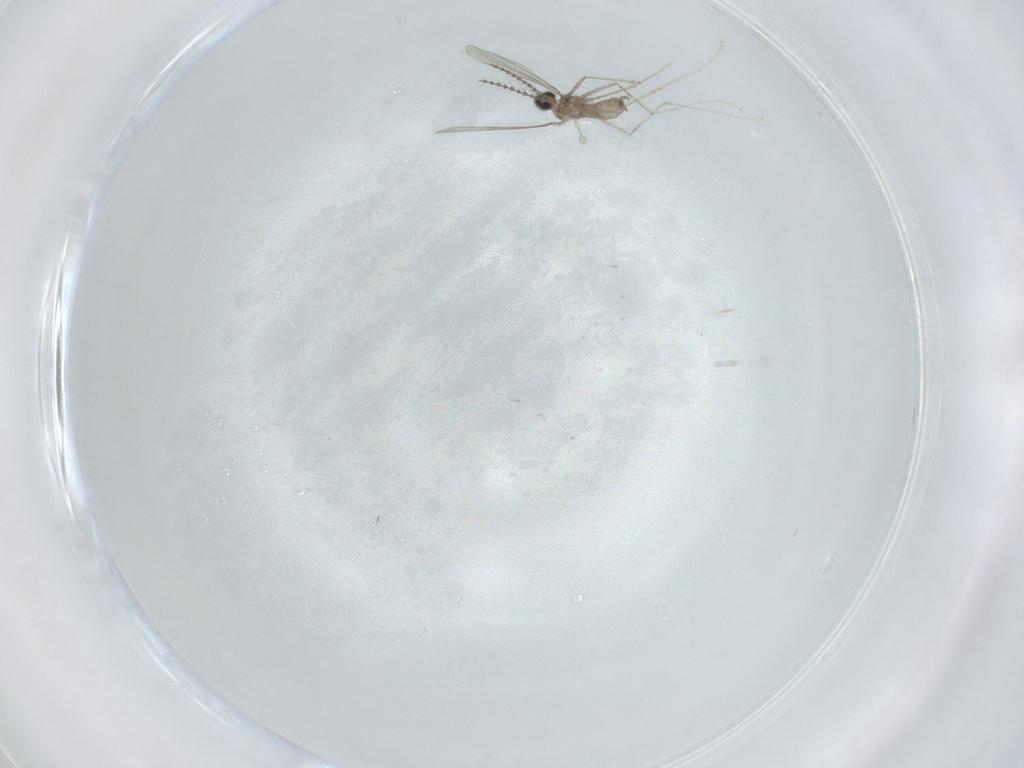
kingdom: Animalia
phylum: Arthropoda
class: Insecta
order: Diptera
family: Cecidomyiidae
